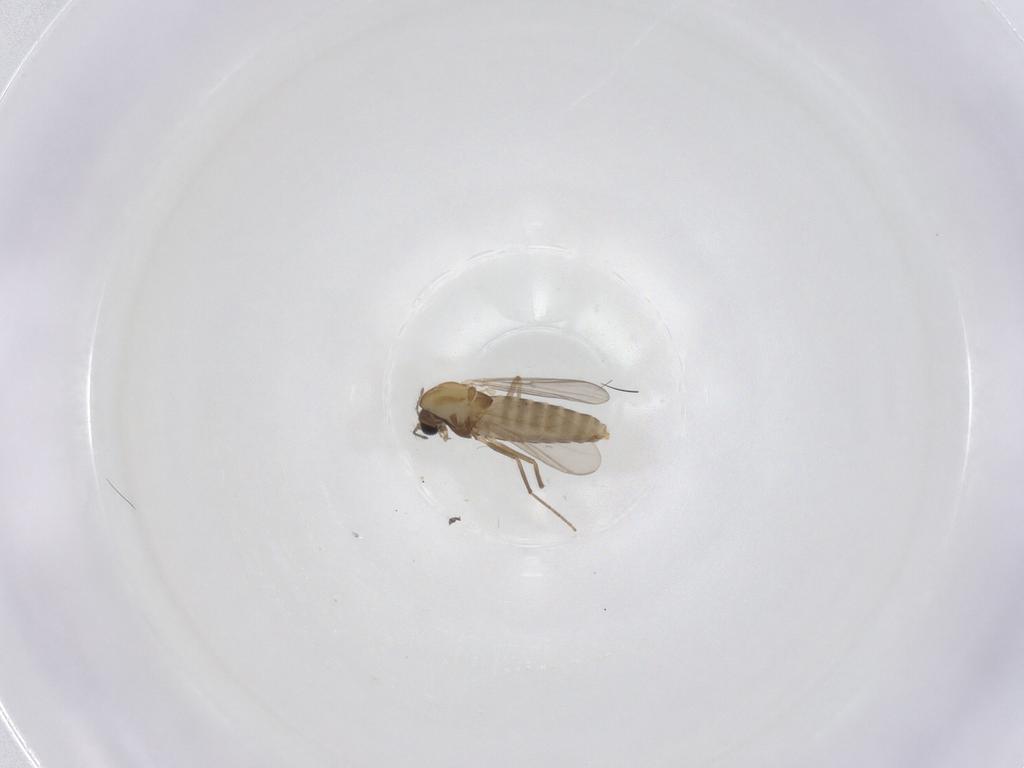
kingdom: Animalia
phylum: Arthropoda
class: Insecta
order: Diptera
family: Chironomidae
